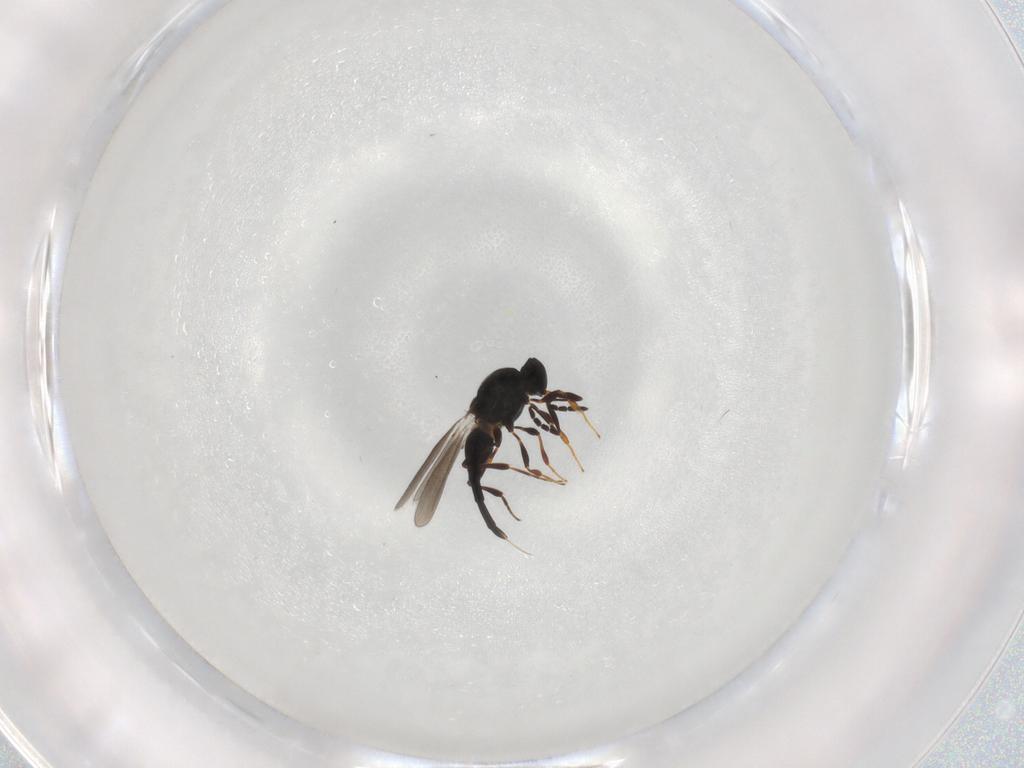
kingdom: Animalia
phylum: Arthropoda
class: Insecta
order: Hymenoptera
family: Platygastridae
